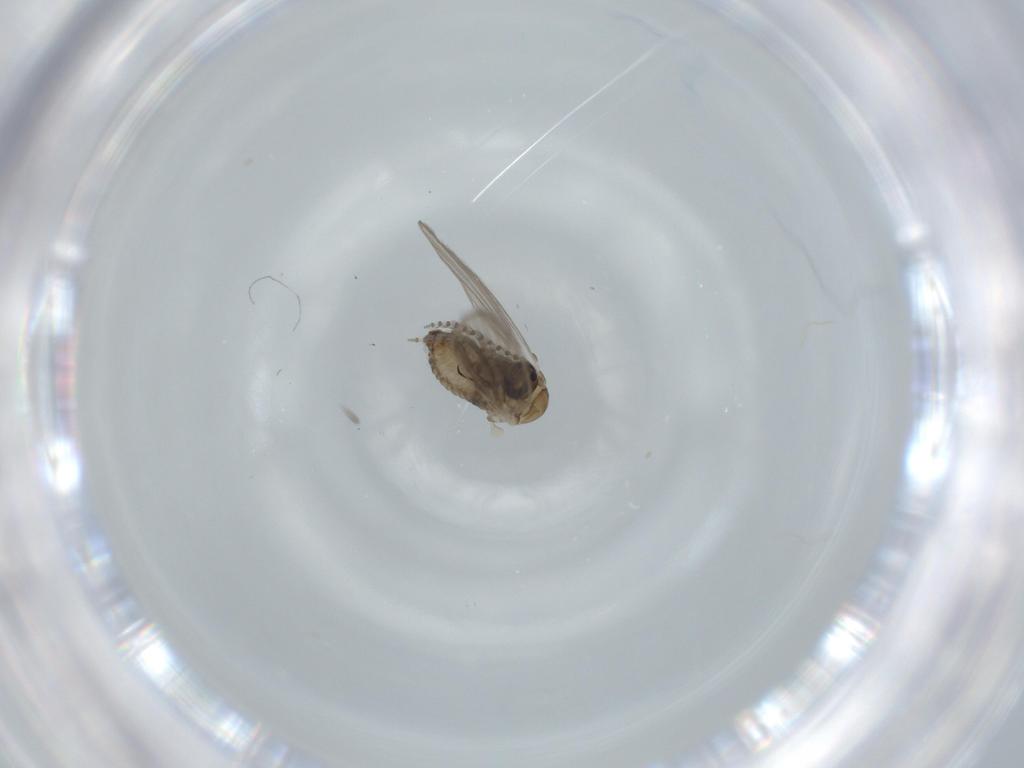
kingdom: Animalia
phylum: Arthropoda
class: Insecta
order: Diptera
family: Psychodidae
